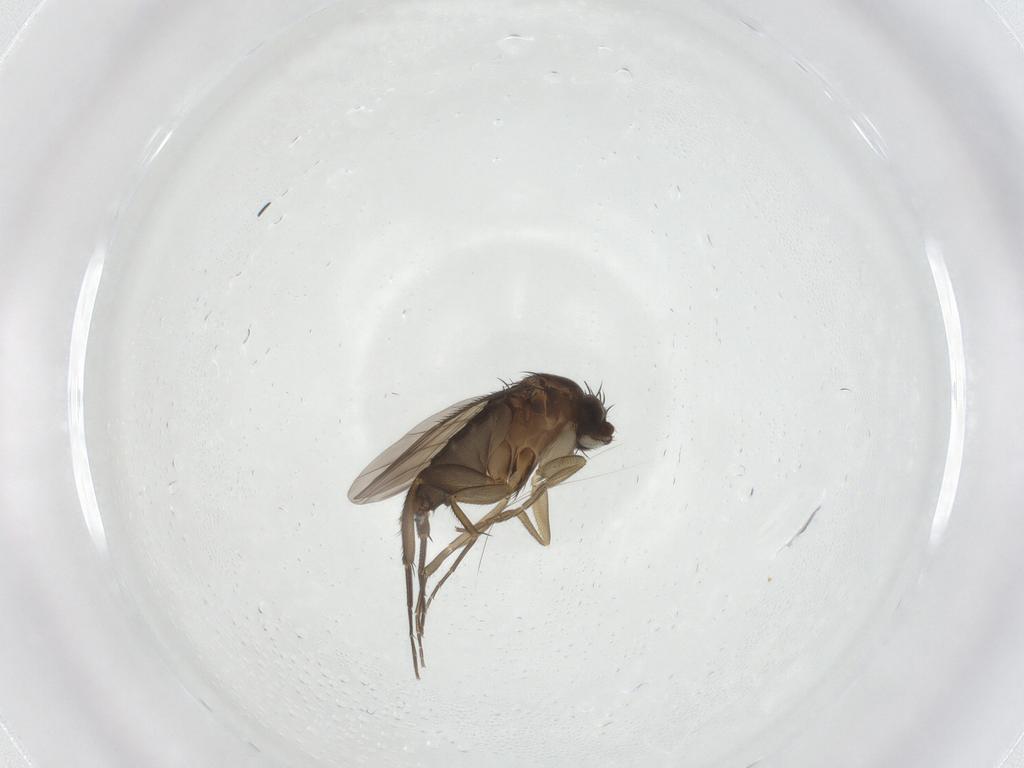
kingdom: Animalia
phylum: Arthropoda
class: Insecta
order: Diptera
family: Phoridae
